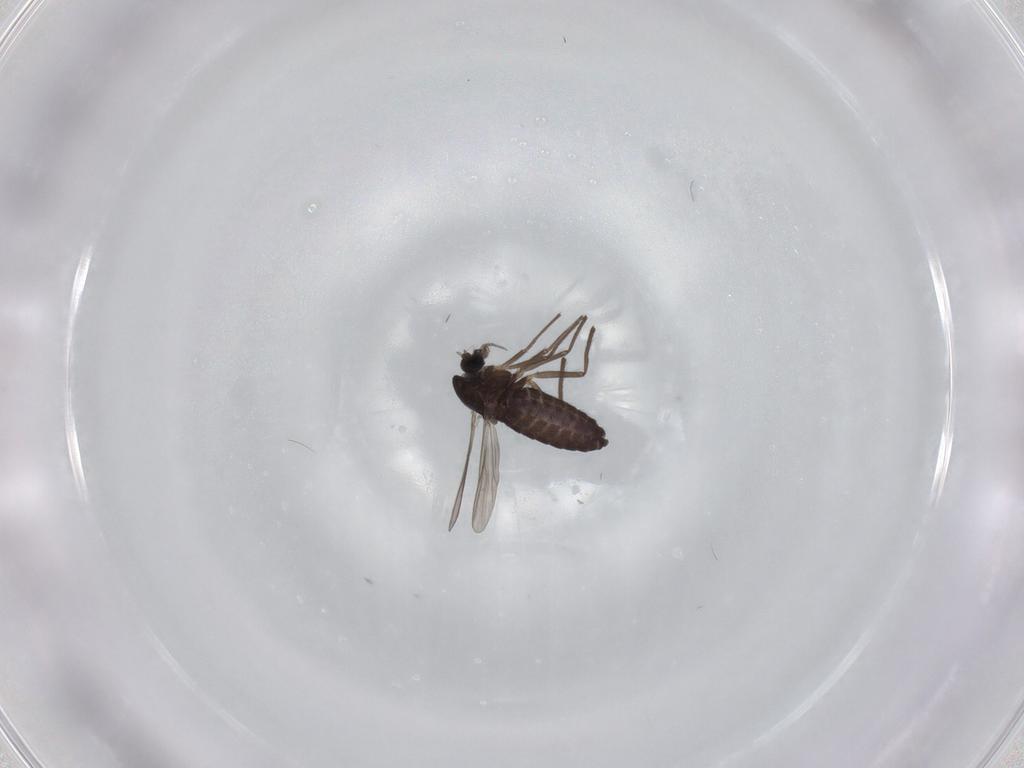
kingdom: Animalia
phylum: Arthropoda
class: Insecta
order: Diptera
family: Chironomidae
